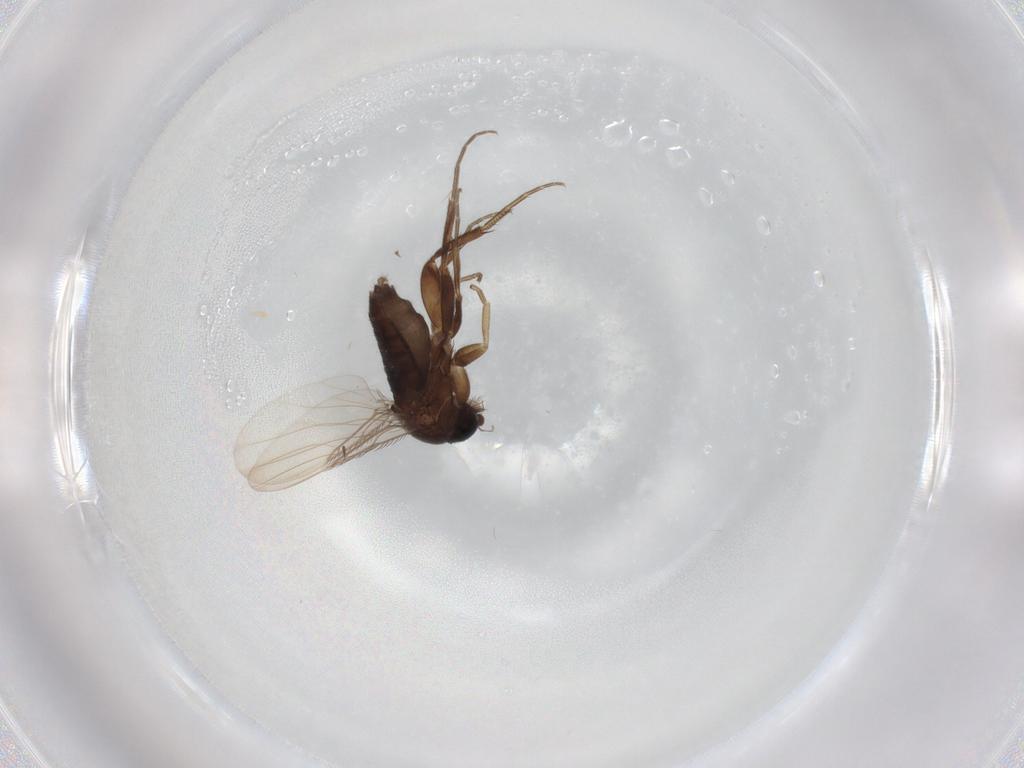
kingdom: Animalia
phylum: Arthropoda
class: Insecta
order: Diptera
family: Phoridae
